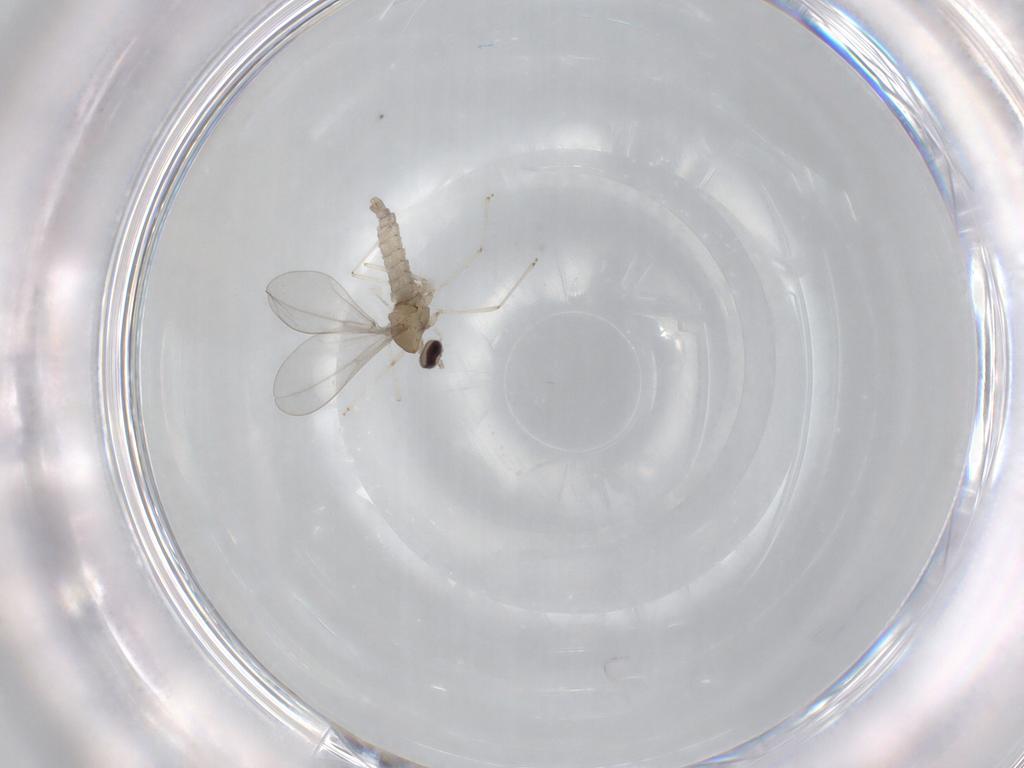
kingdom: Animalia
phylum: Arthropoda
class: Insecta
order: Diptera
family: Cecidomyiidae
